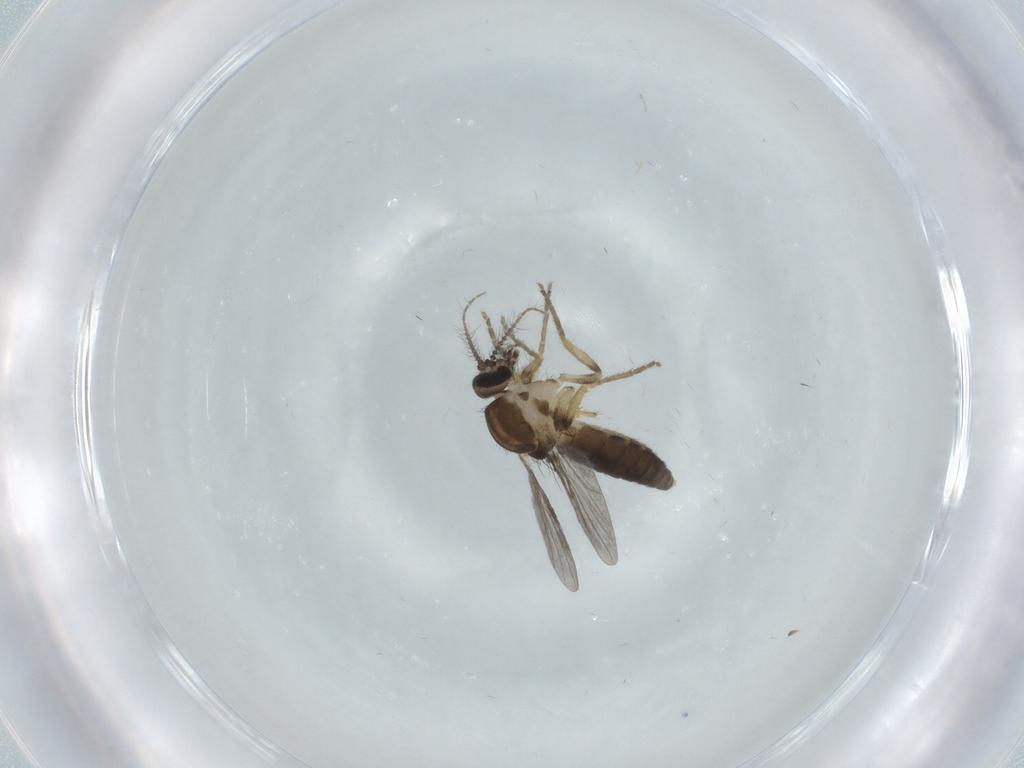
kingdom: Animalia
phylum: Arthropoda
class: Insecta
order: Diptera
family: Ceratopogonidae
